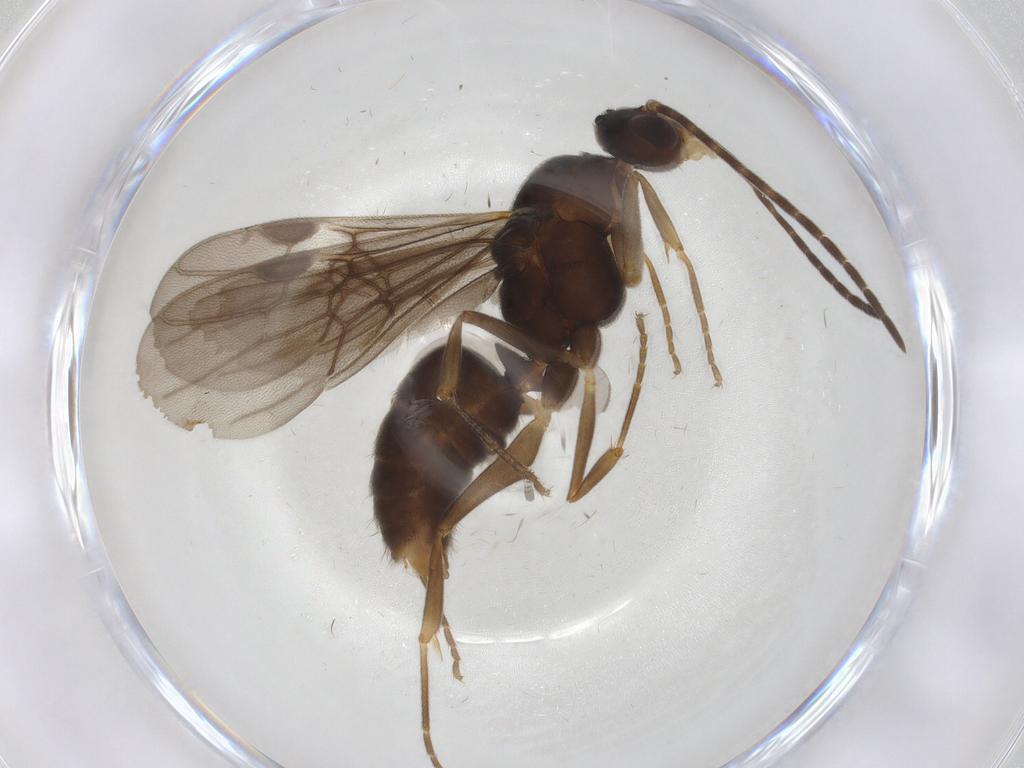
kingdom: Animalia
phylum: Arthropoda
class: Insecta
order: Hymenoptera
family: Formicidae
